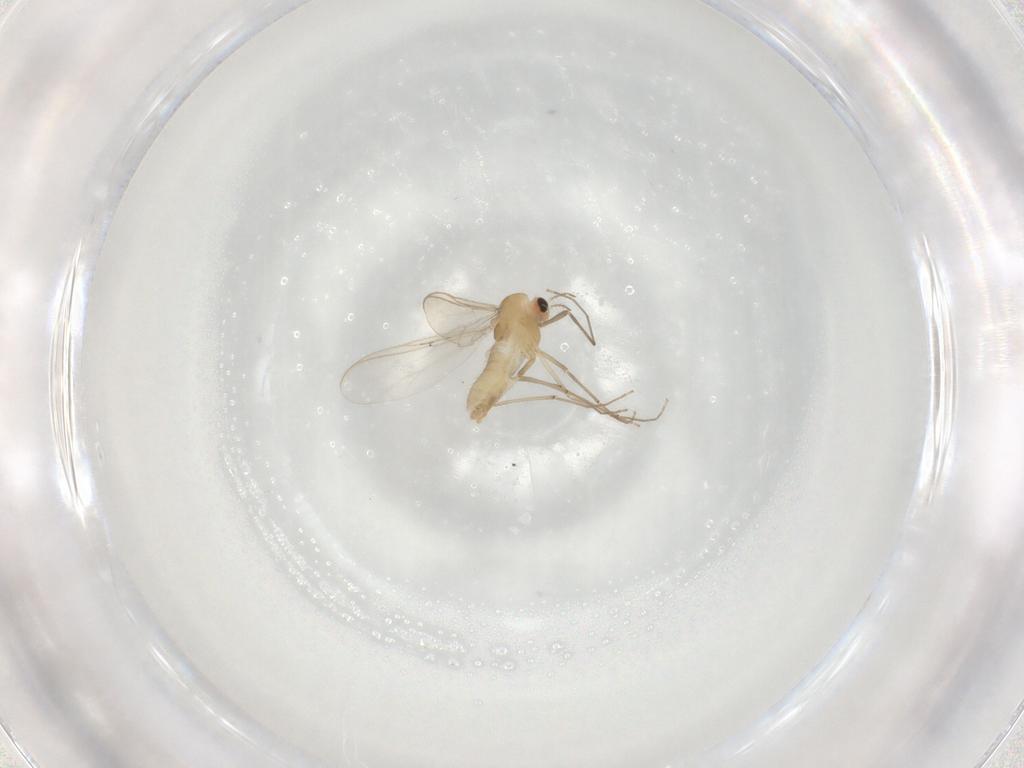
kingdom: Animalia
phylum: Arthropoda
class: Insecta
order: Diptera
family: Chironomidae
